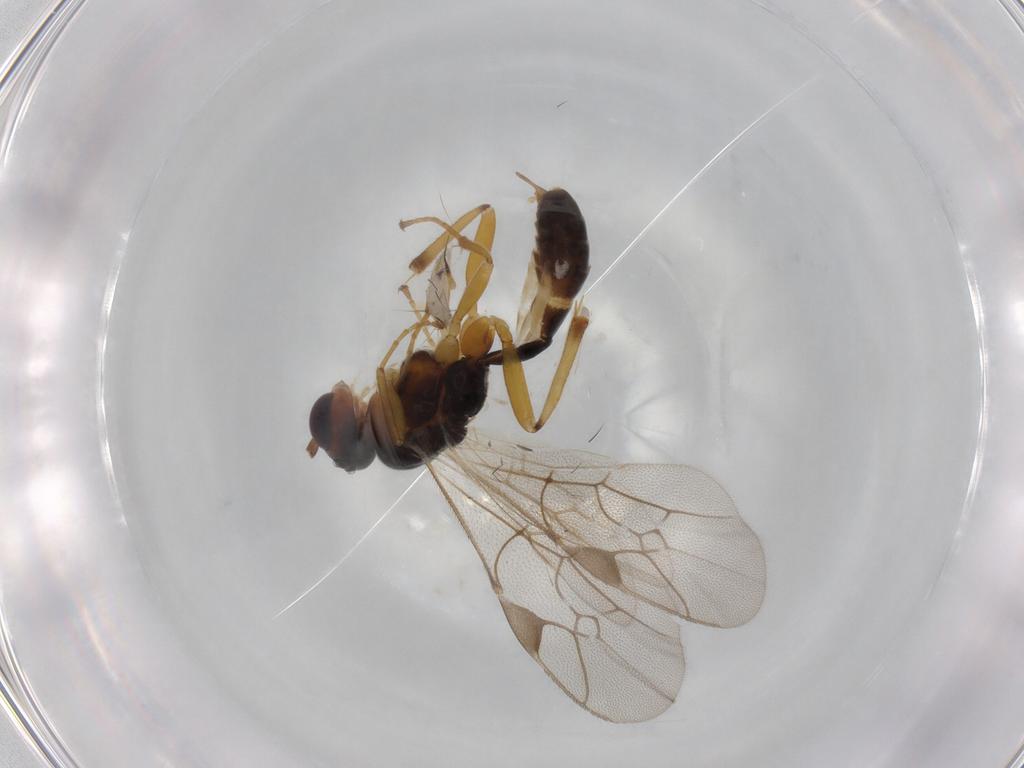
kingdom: Animalia
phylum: Arthropoda
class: Insecta
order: Hymenoptera
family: Ichneumonidae
